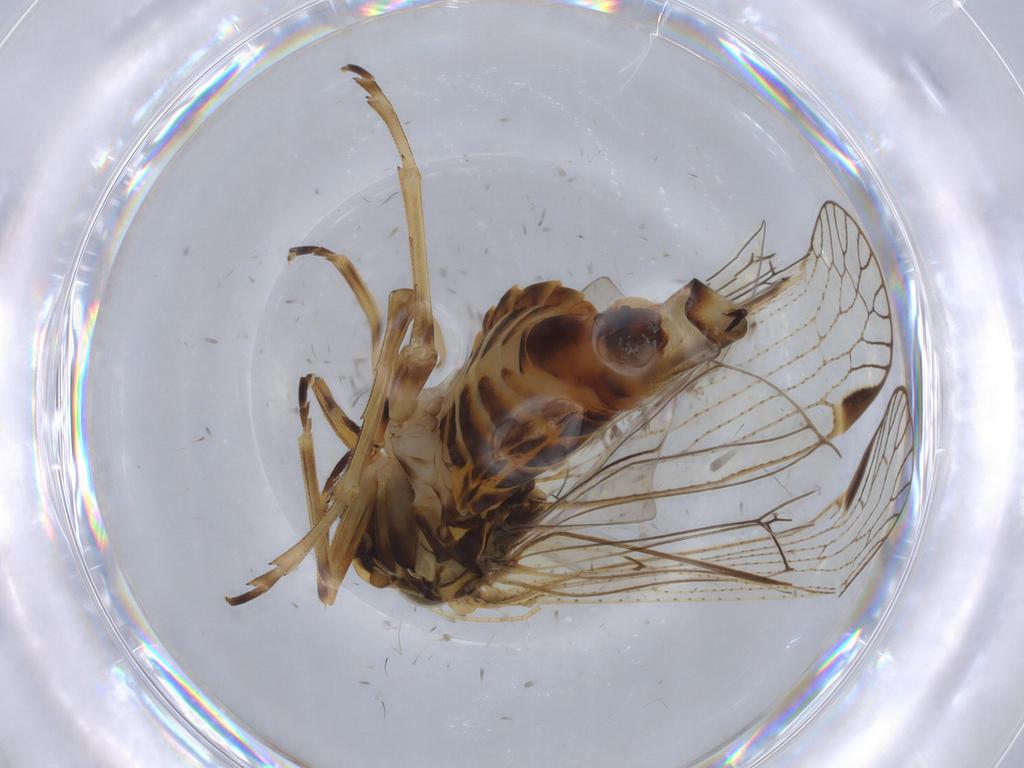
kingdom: Animalia
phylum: Arthropoda
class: Insecta
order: Hemiptera
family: Cixiidae
